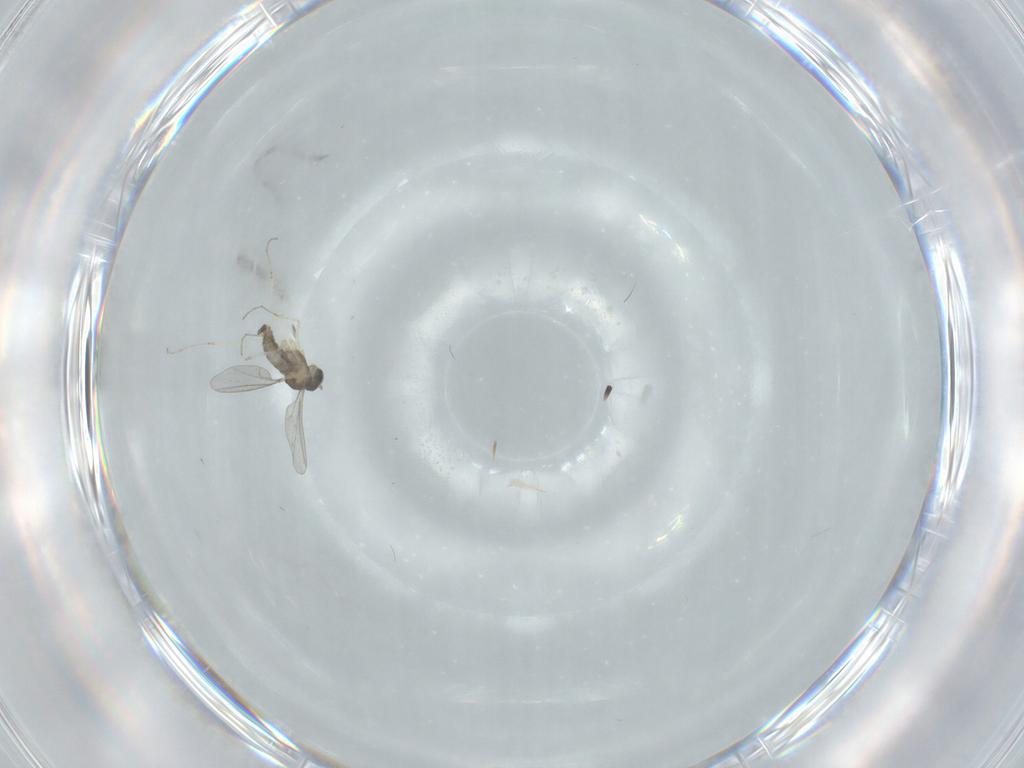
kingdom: Animalia
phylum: Arthropoda
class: Insecta
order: Diptera
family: Cecidomyiidae
